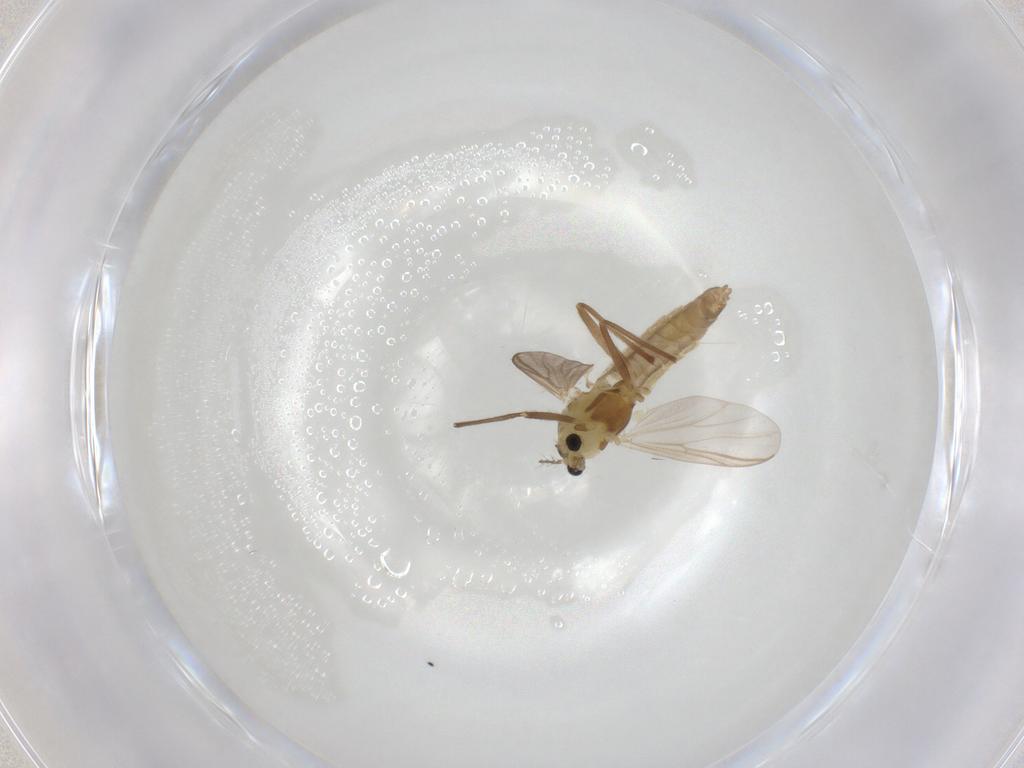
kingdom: Animalia
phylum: Arthropoda
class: Insecta
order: Diptera
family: Chironomidae
